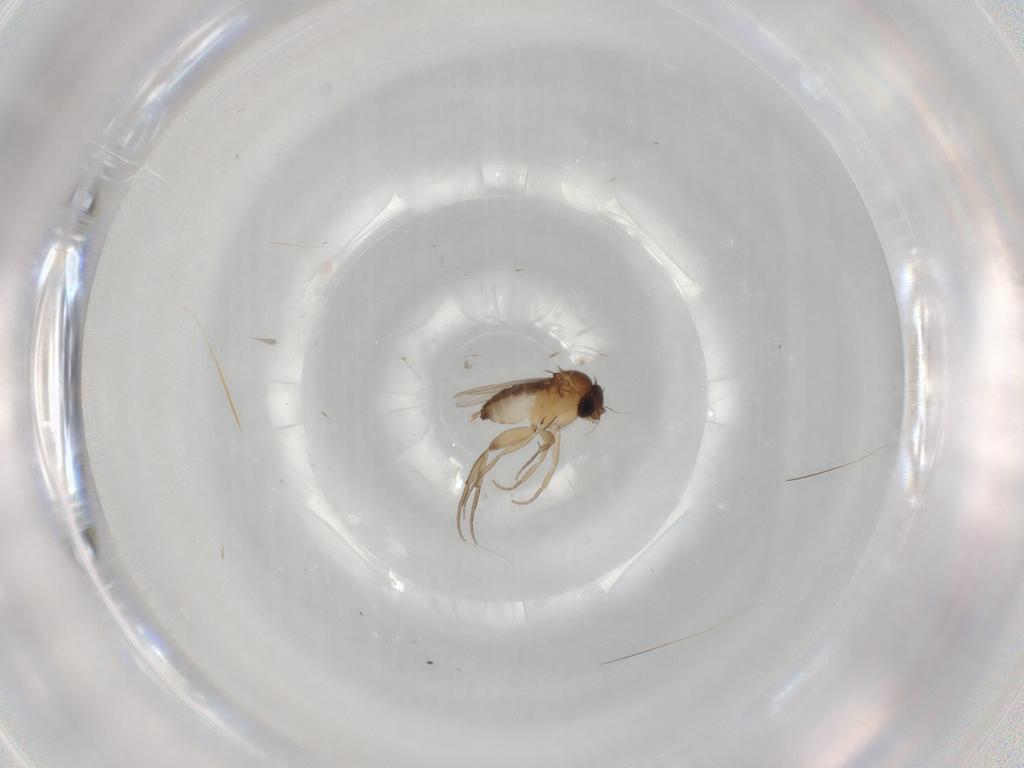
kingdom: Animalia
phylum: Arthropoda
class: Insecta
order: Diptera
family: Phoridae
